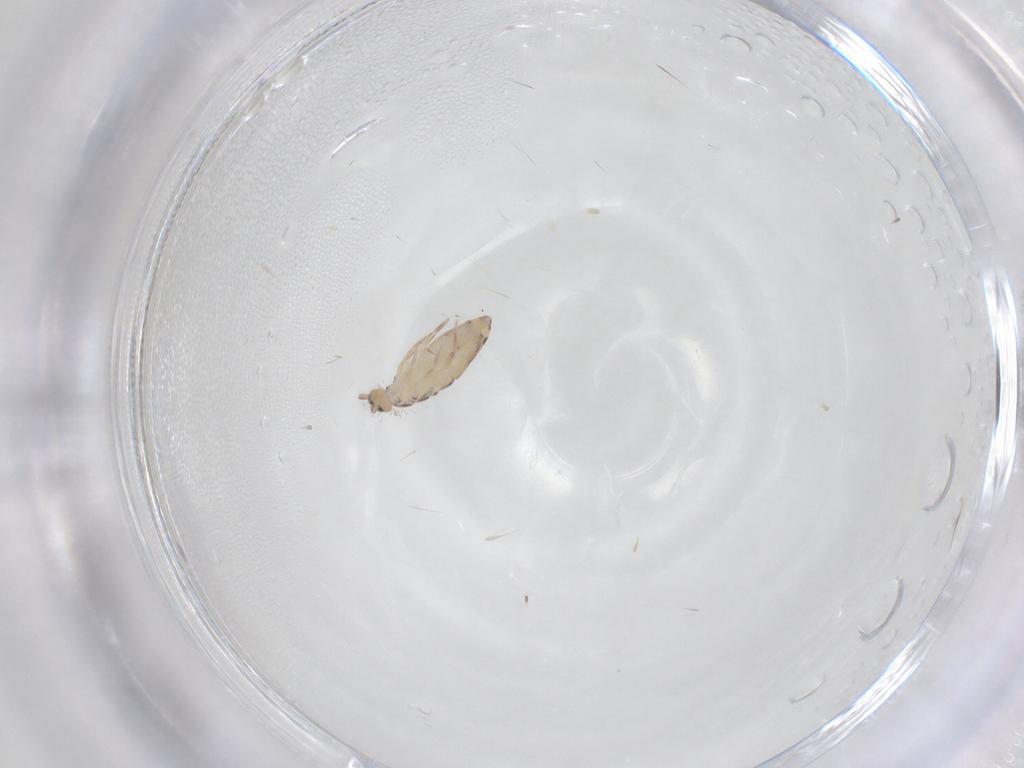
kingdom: Animalia
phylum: Arthropoda
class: Collembola
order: Entomobryomorpha
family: Entomobryidae
